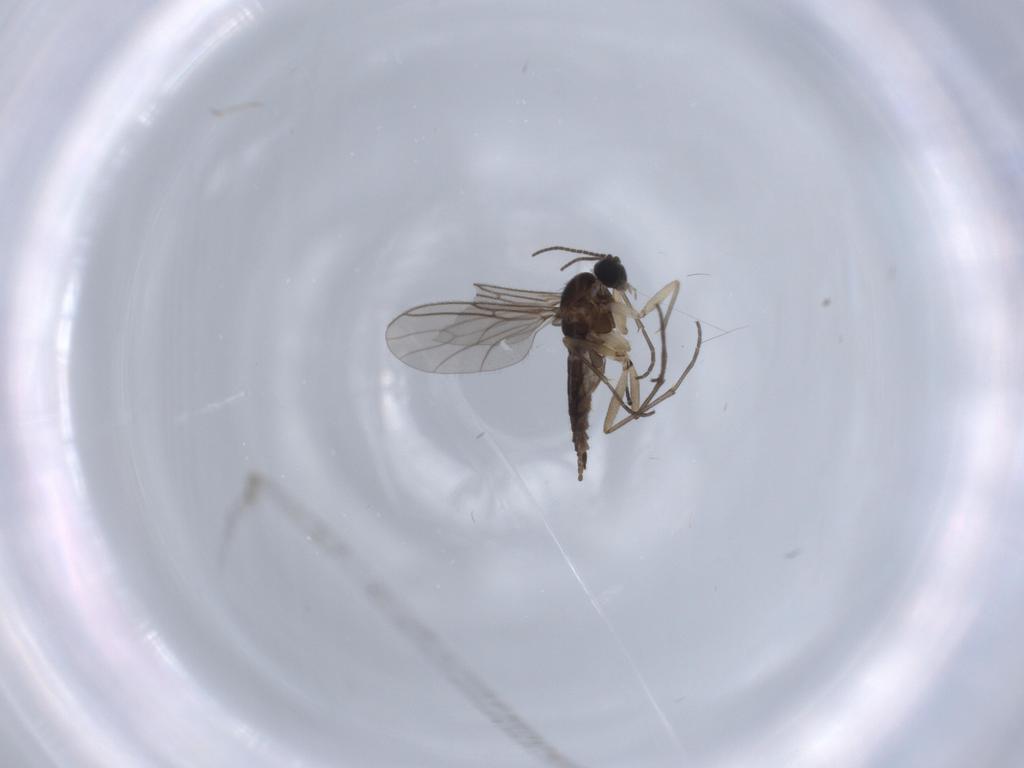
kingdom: Animalia
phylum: Arthropoda
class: Insecta
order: Diptera
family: Sciaridae
